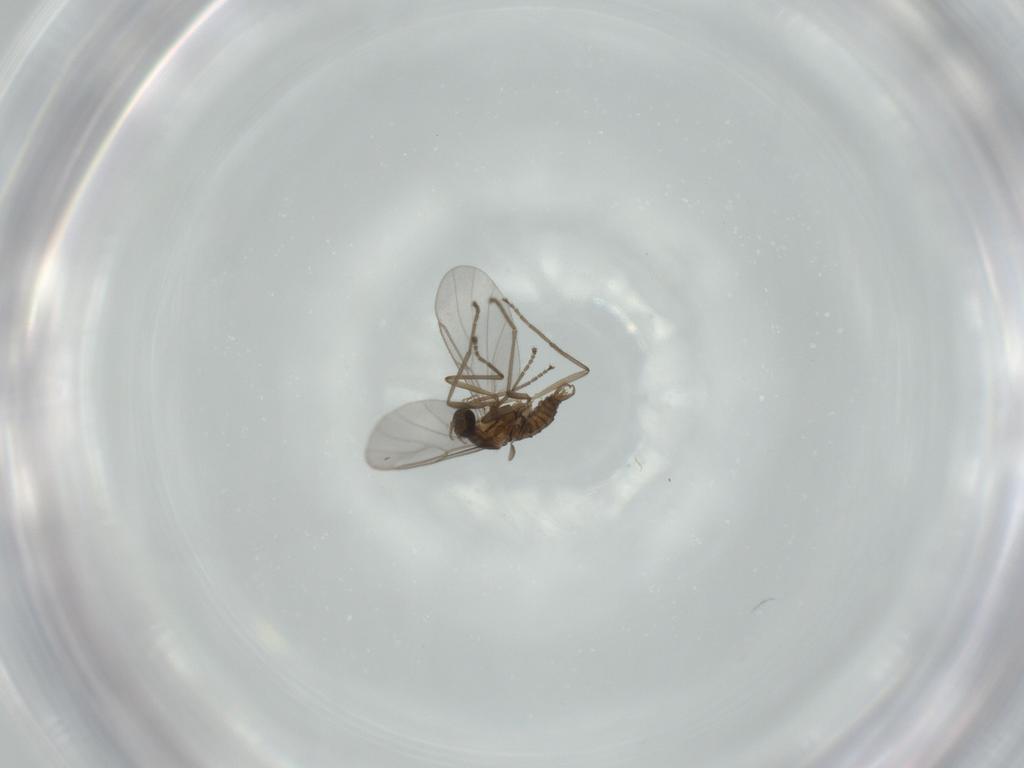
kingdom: Animalia
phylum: Arthropoda
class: Insecta
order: Diptera
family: Cecidomyiidae
